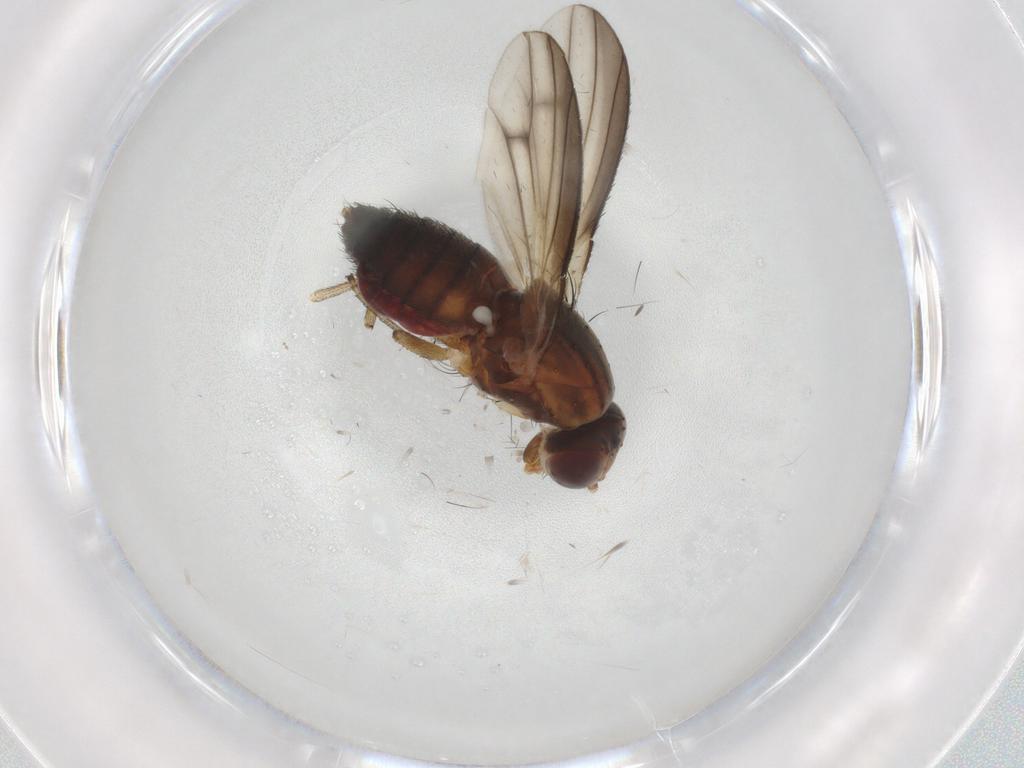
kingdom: Animalia
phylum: Arthropoda
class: Insecta
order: Diptera
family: Heleomyzidae
